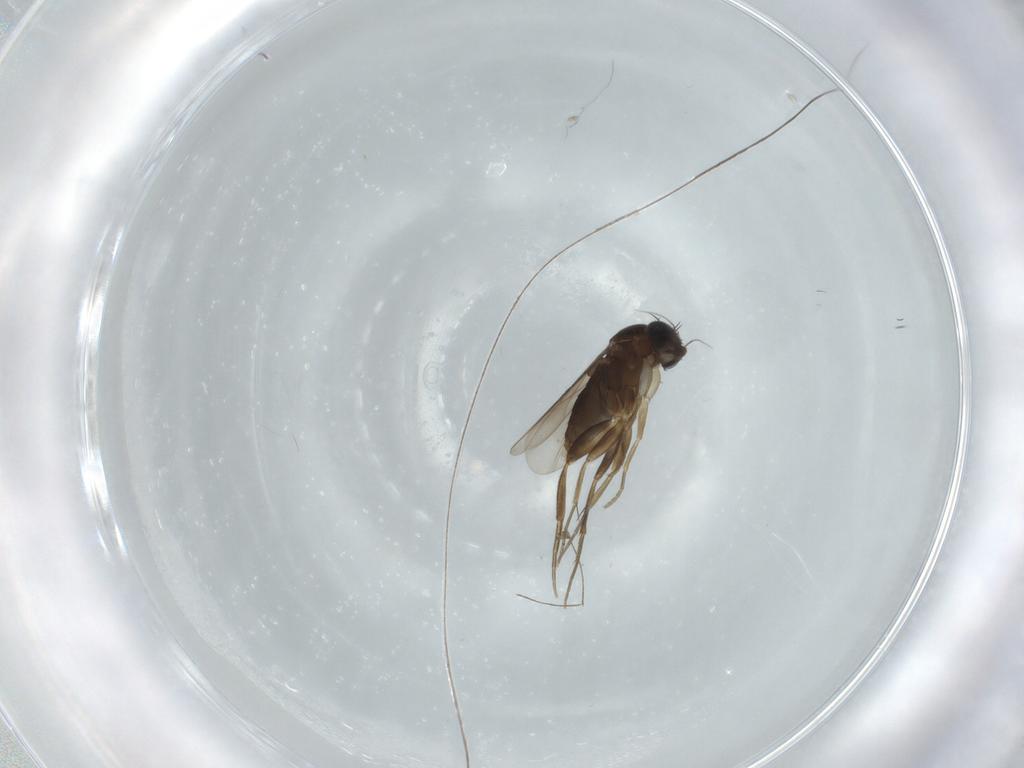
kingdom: Animalia
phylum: Arthropoda
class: Insecta
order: Diptera
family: Phoridae
